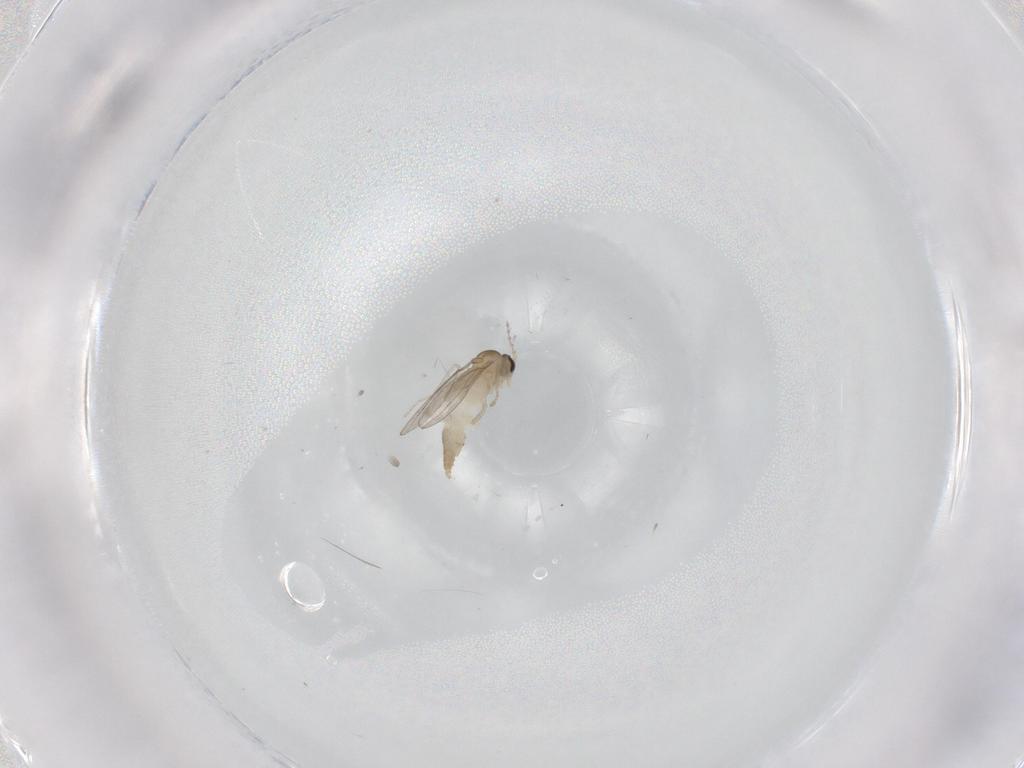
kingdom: Animalia
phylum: Arthropoda
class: Insecta
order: Diptera
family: Cecidomyiidae
